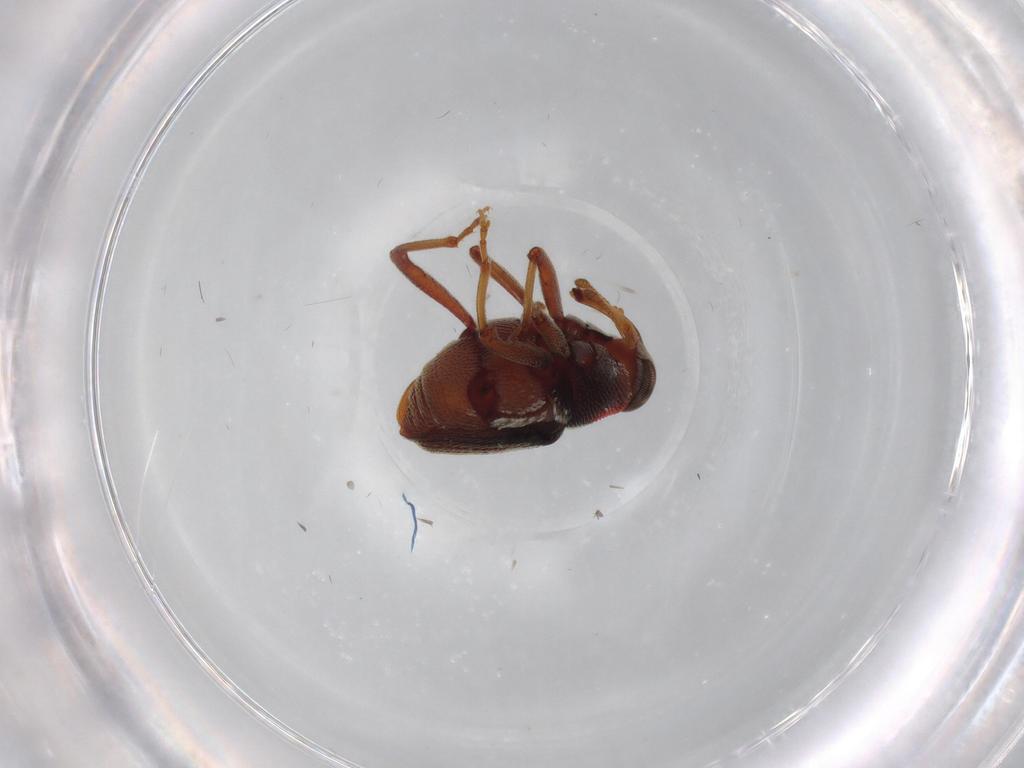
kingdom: Animalia
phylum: Arthropoda
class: Insecta
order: Coleoptera
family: Curculionidae
